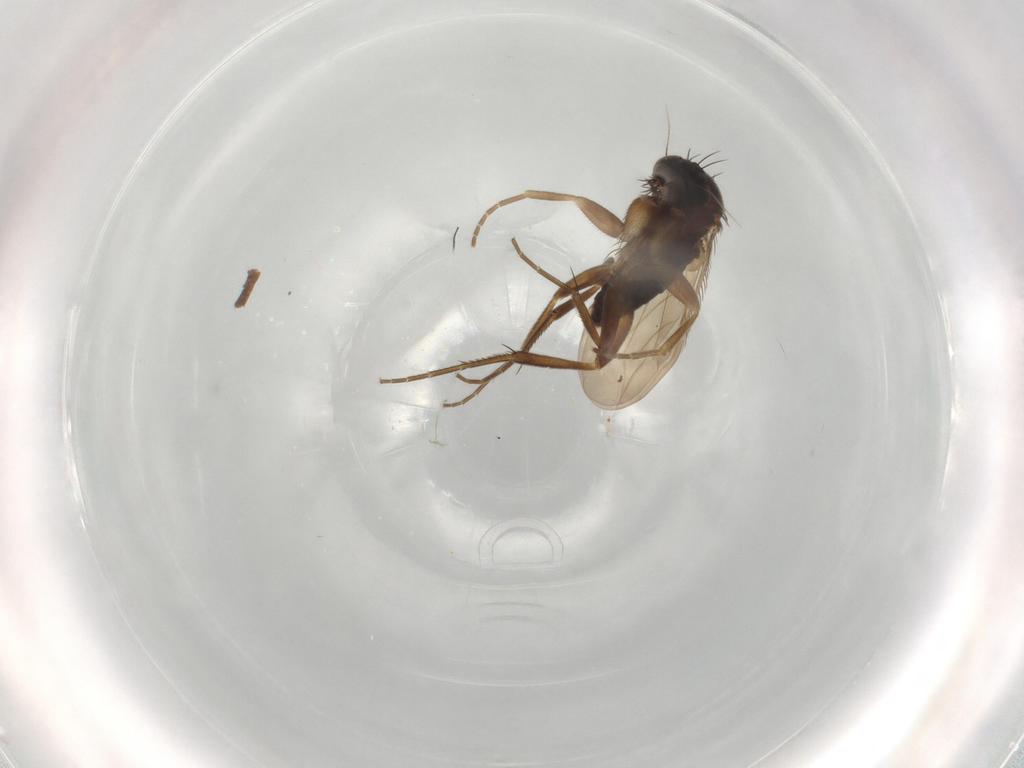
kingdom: Animalia
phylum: Arthropoda
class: Insecta
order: Diptera
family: Phoridae
